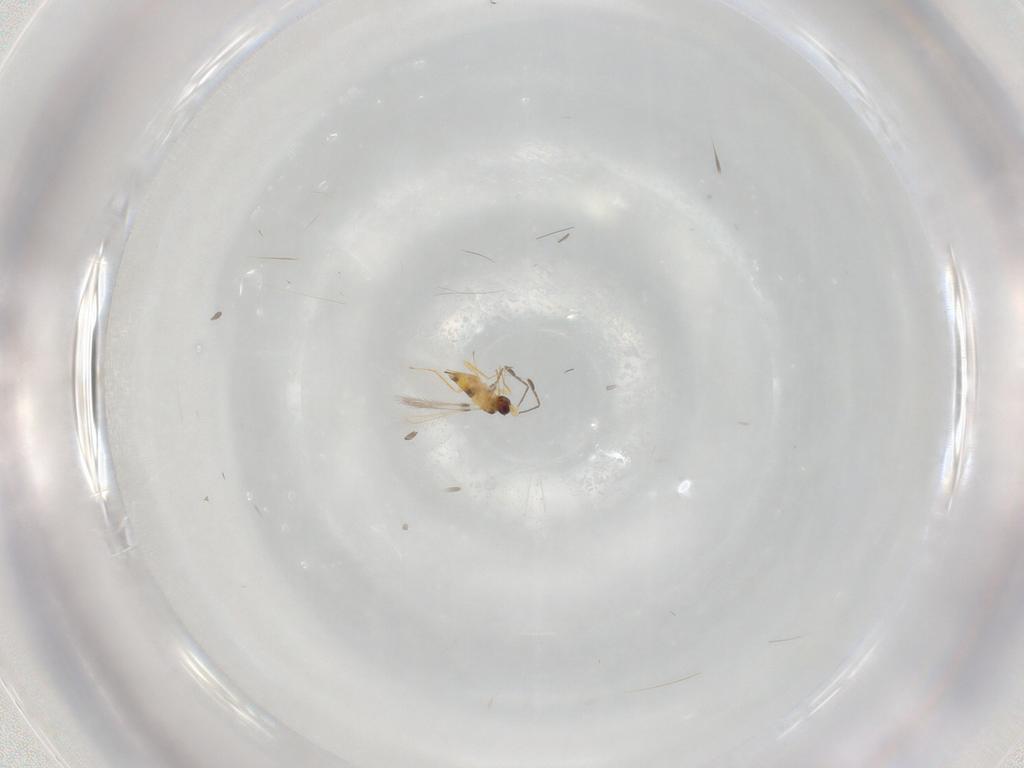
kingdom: Animalia
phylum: Arthropoda
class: Insecta
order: Hymenoptera
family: Mymaridae
